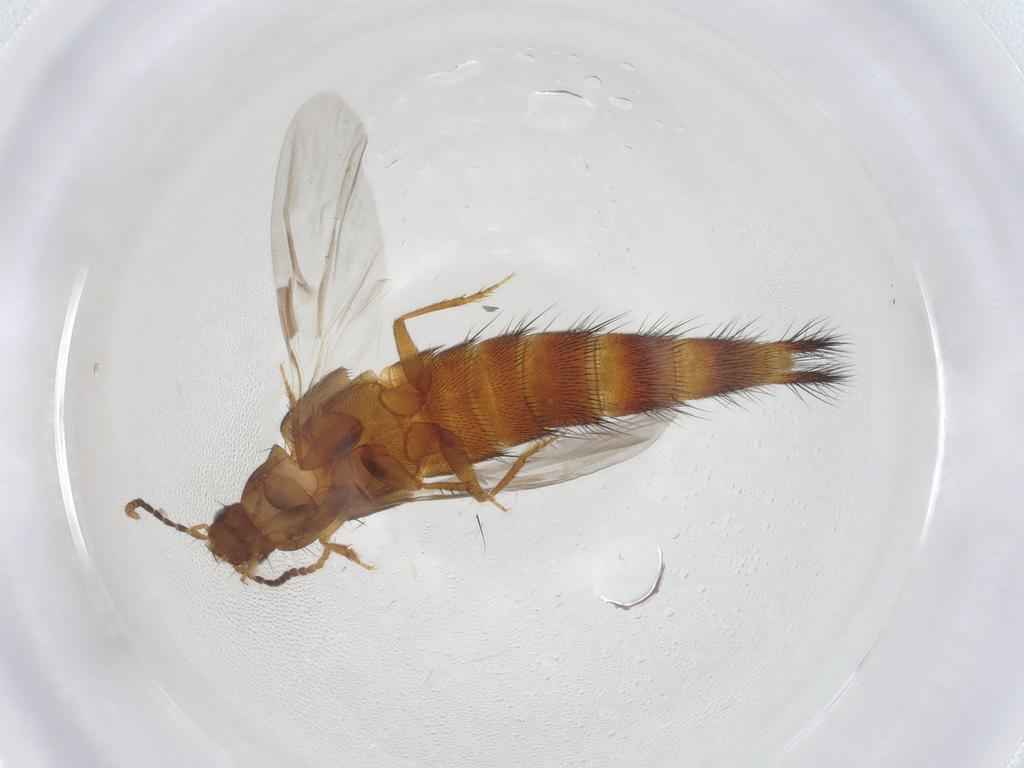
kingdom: Animalia
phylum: Arthropoda
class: Insecta
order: Coleoptera
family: Staphylinidae
